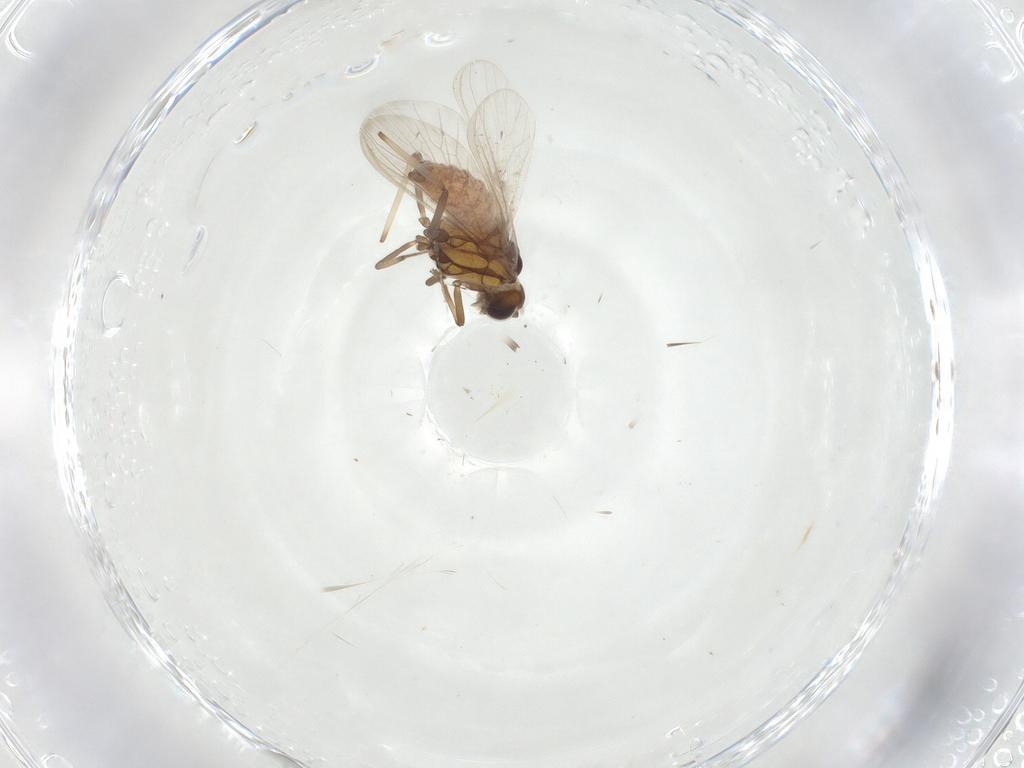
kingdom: Animalia
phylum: Arthropoda
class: Insecta
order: Neuroptera
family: Coniopterygidae
